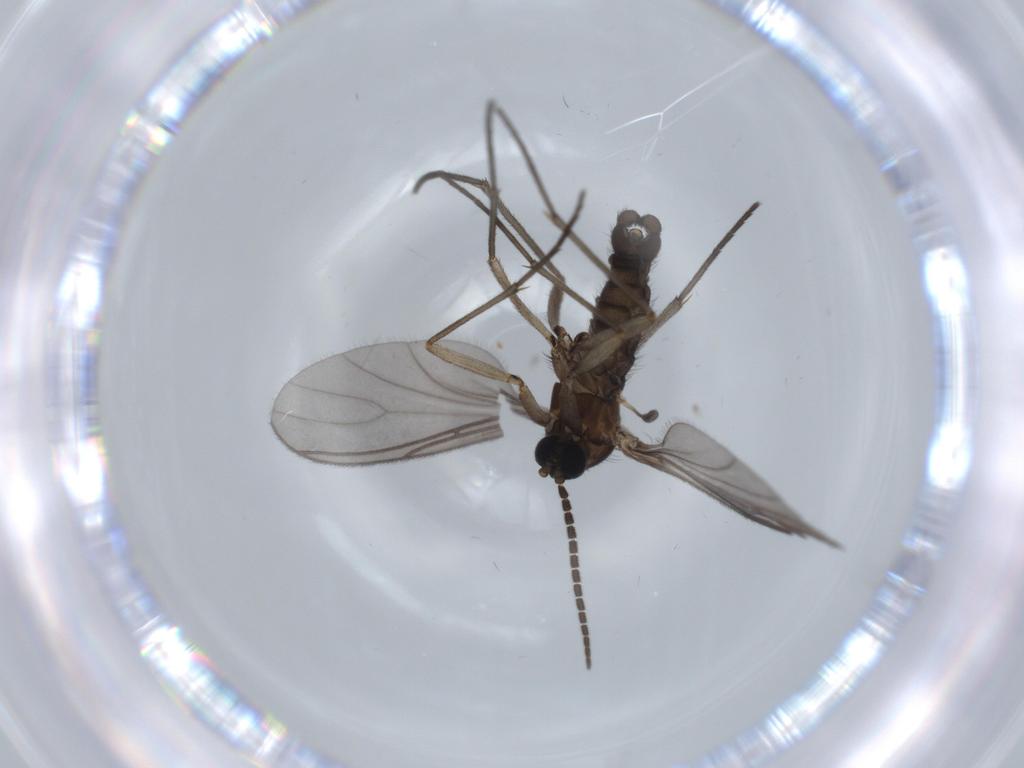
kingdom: Animalia
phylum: Arthropoda
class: Insecta
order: Diptera
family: Sciaridae
